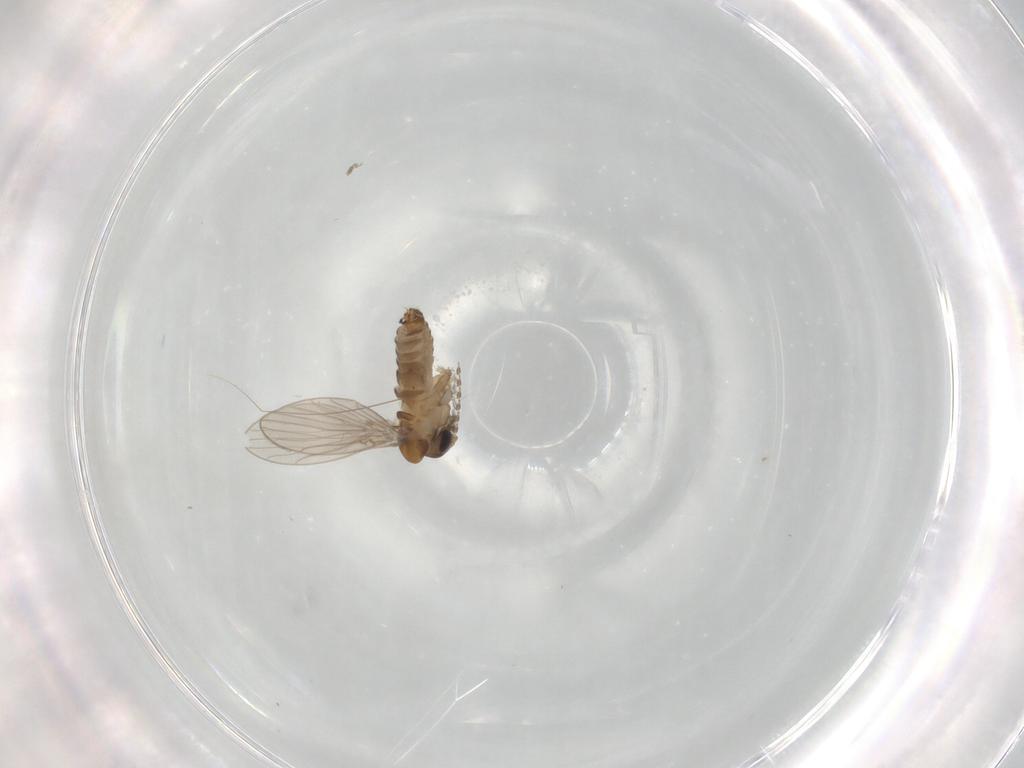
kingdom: Animalia
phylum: Arthropoda
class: Insecta
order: Diptera
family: Psychodidae
